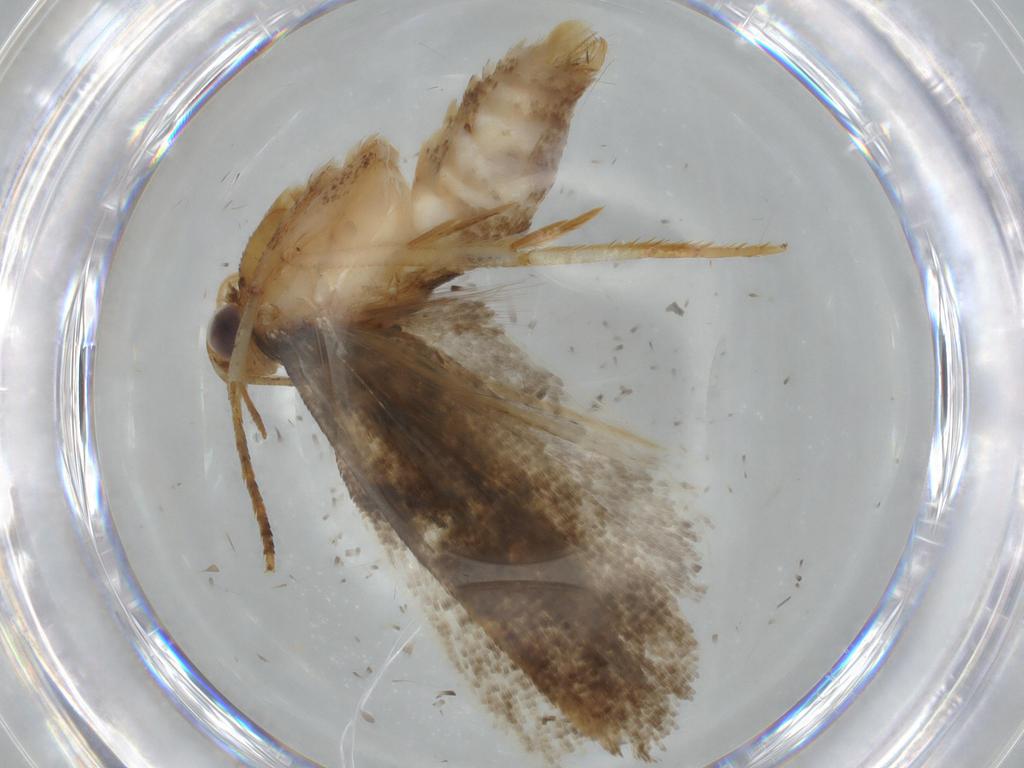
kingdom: Animalia
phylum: Arthropoda
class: Insecta
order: Lepidoptera
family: Gelechiidae
